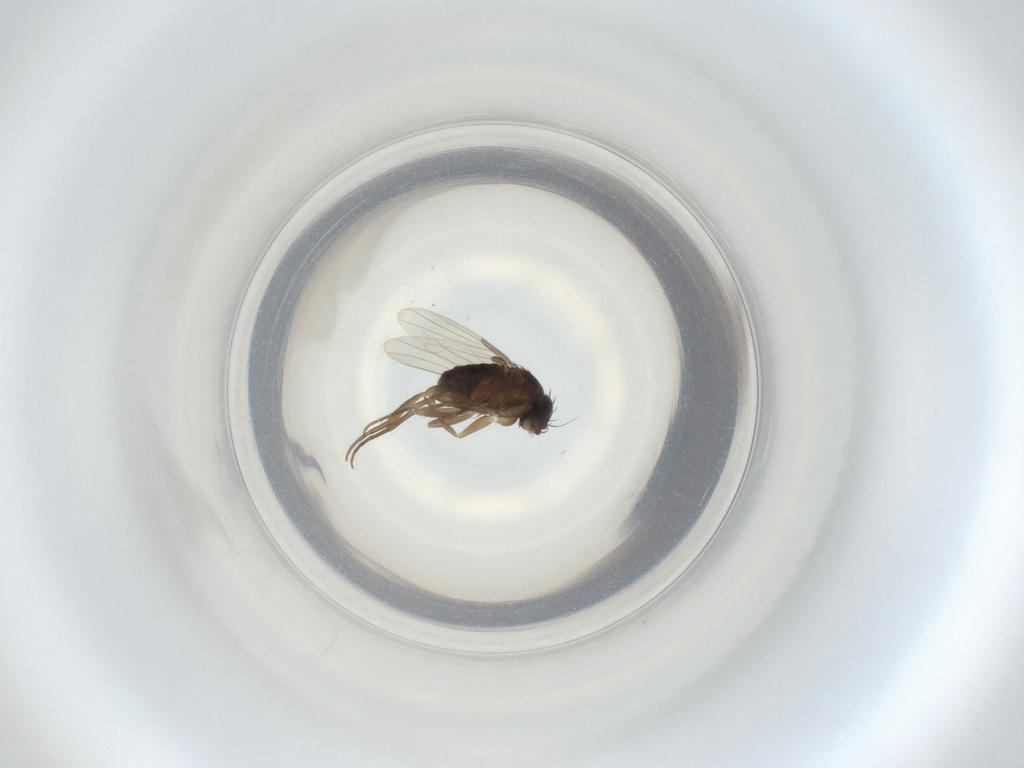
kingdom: Animalia
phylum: Arthropoda
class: Insecta
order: Diptera
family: Phoridae
